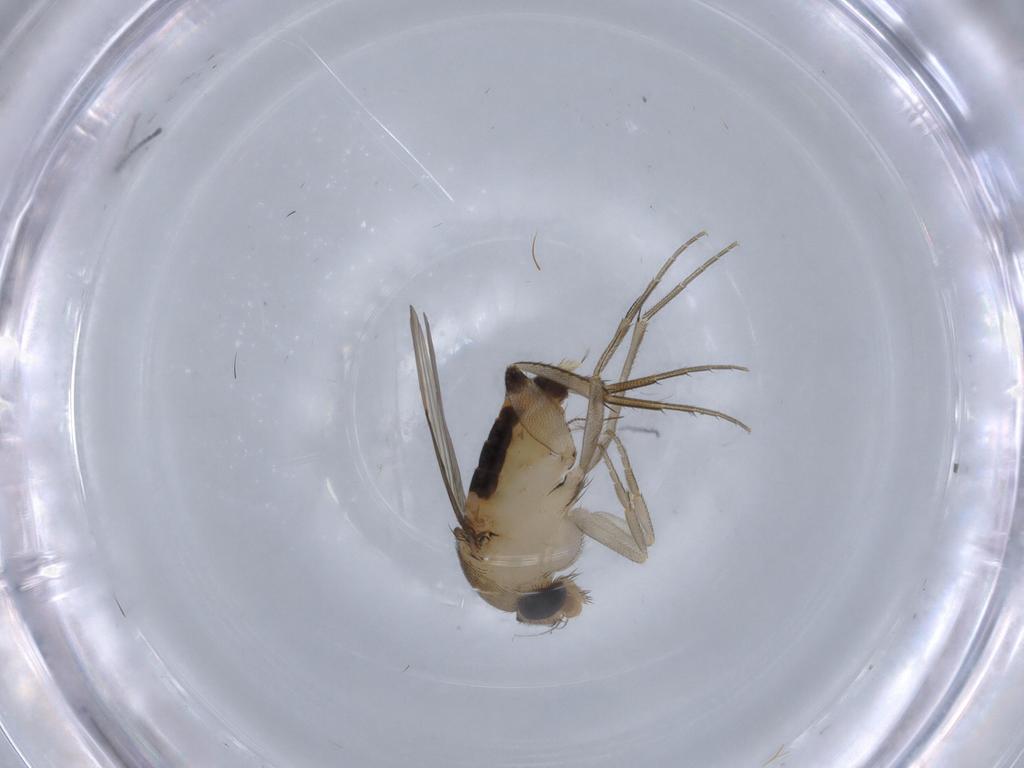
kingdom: Animalia
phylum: Arthropoda
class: Insecta
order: Diptera
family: Phoridae
